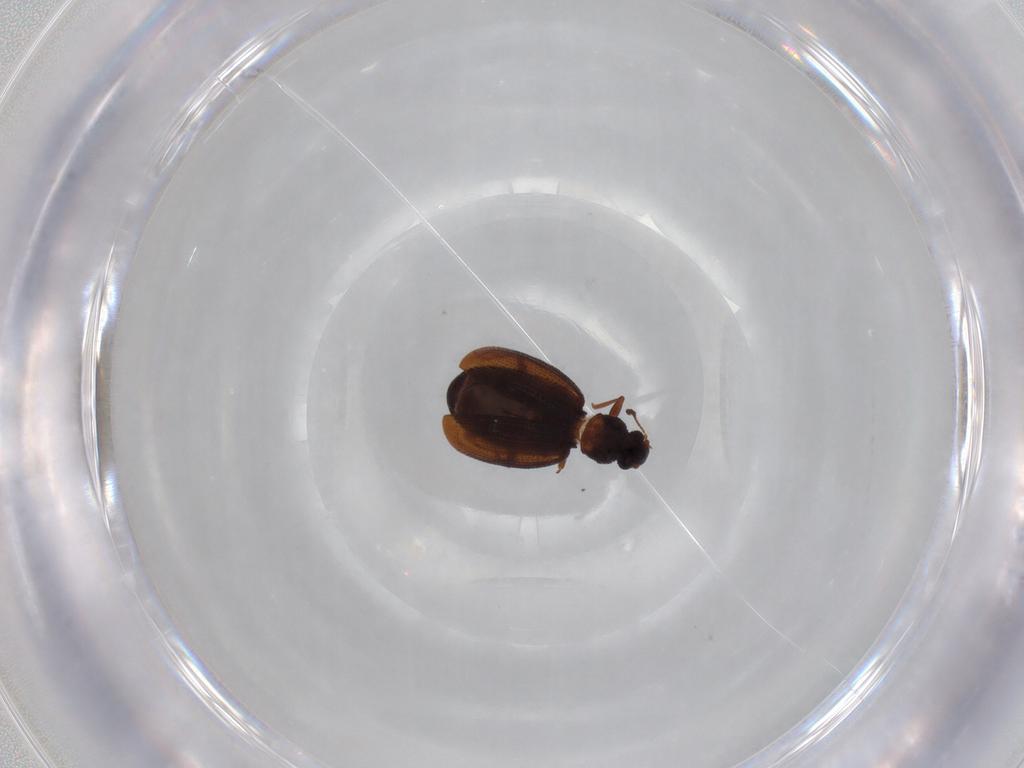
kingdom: Animalia
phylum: Arthropoda
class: Insecta
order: Coleoptera
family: Latridiidae
